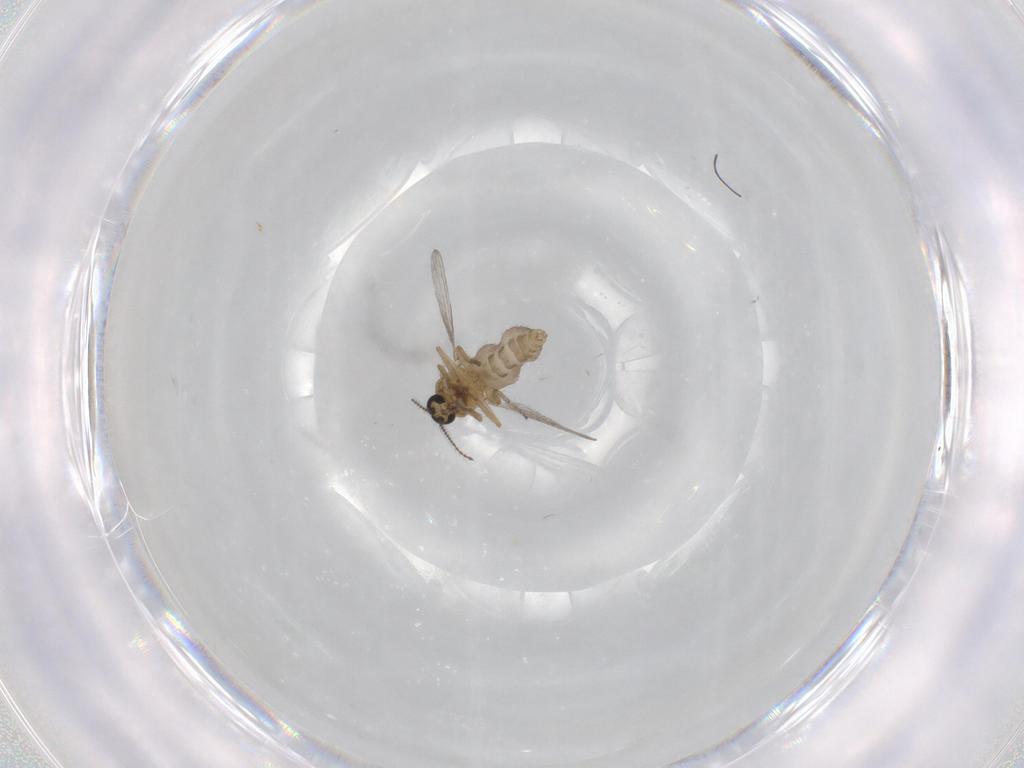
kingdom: Animalia
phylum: Arthropoda
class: Insecta
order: Diptera
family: Ceratopogonidae
